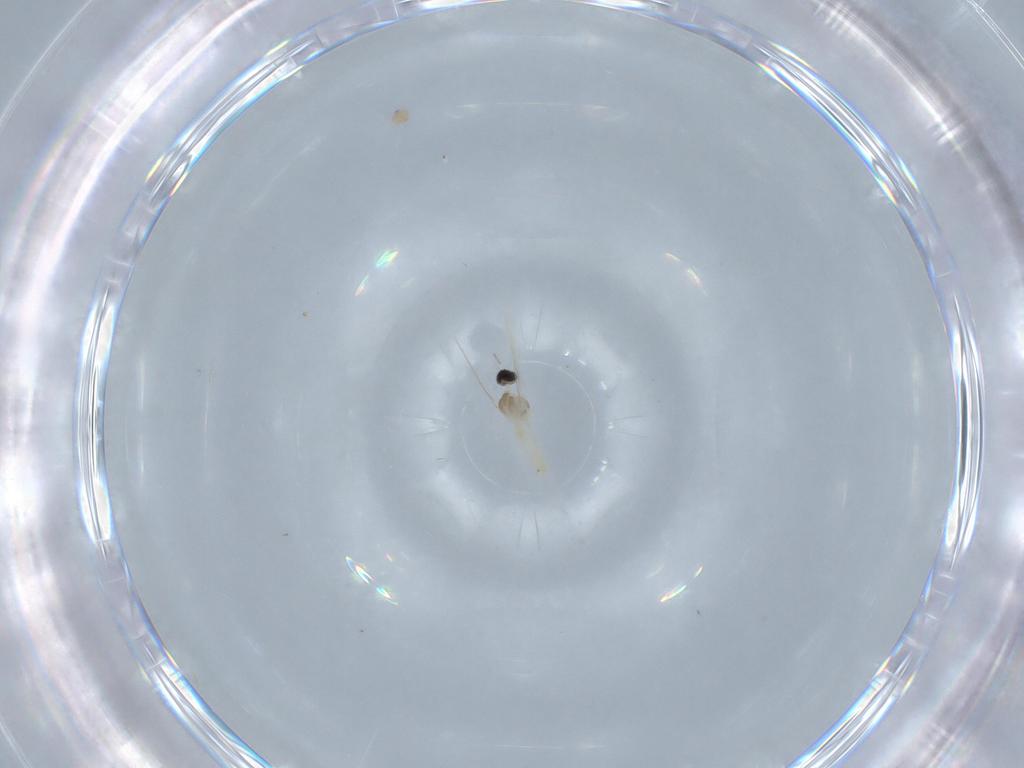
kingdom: Animalia
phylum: Arthropoda
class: Insecta
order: Diptera
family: Cecidomyiidae
